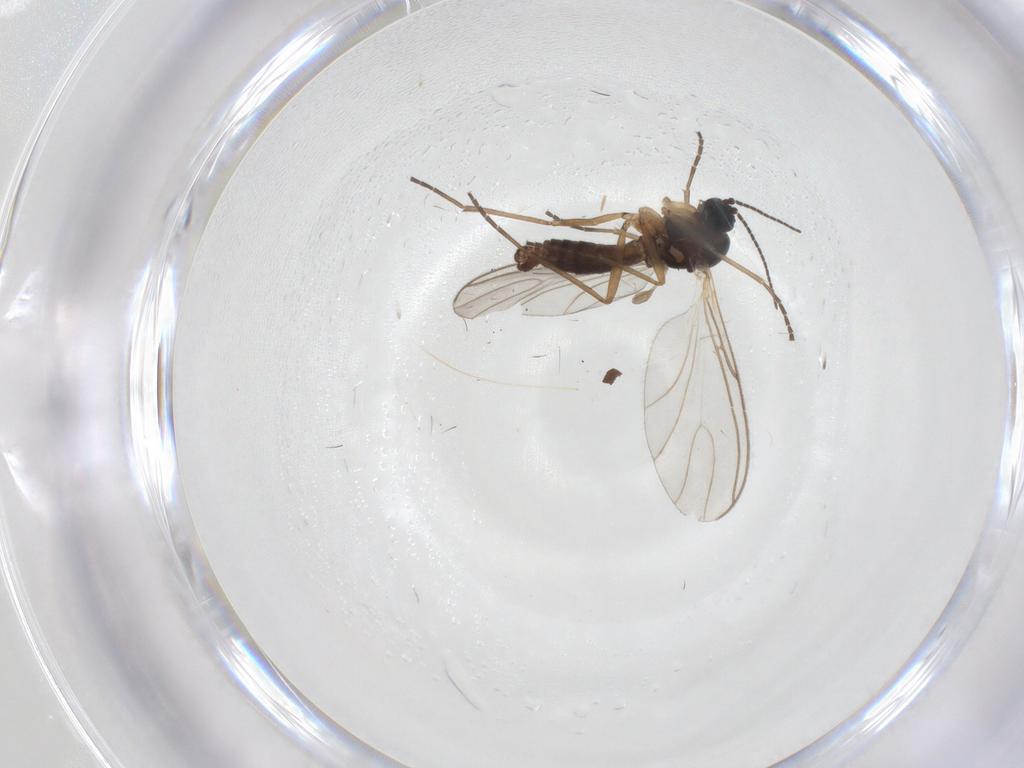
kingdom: Animalia
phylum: Arthropoda
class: Insecta
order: Diptera
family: Sciaridae
